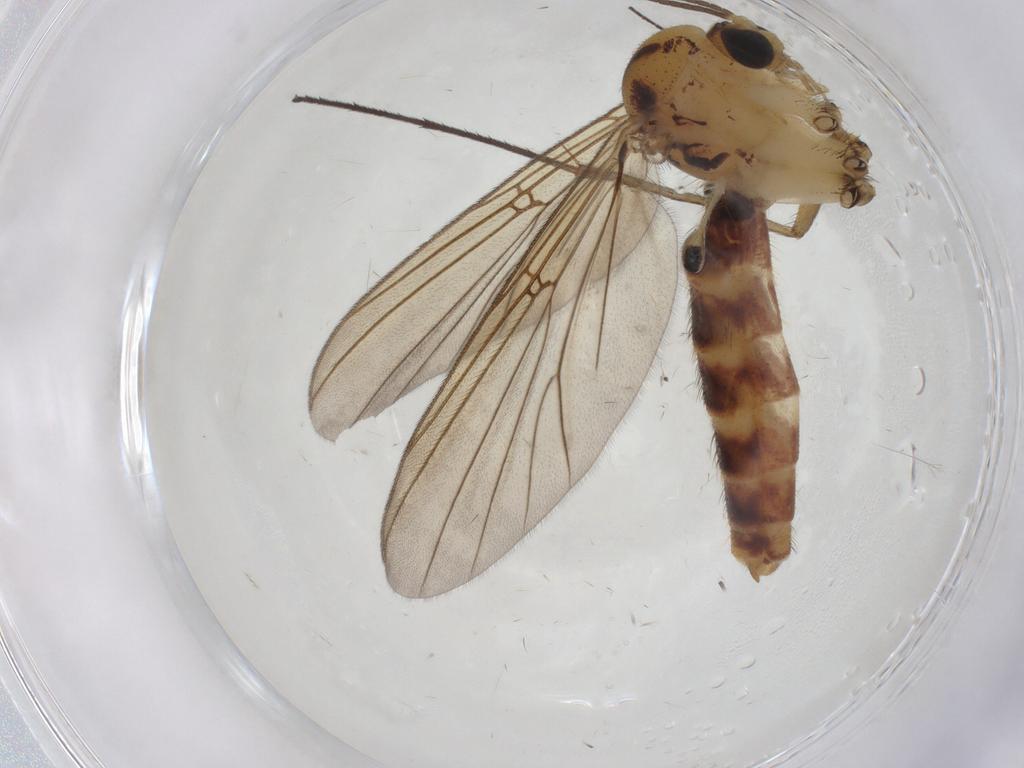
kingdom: Animalia
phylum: Arthropoda
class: Insecta
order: Diptera
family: Mycetophilidae
